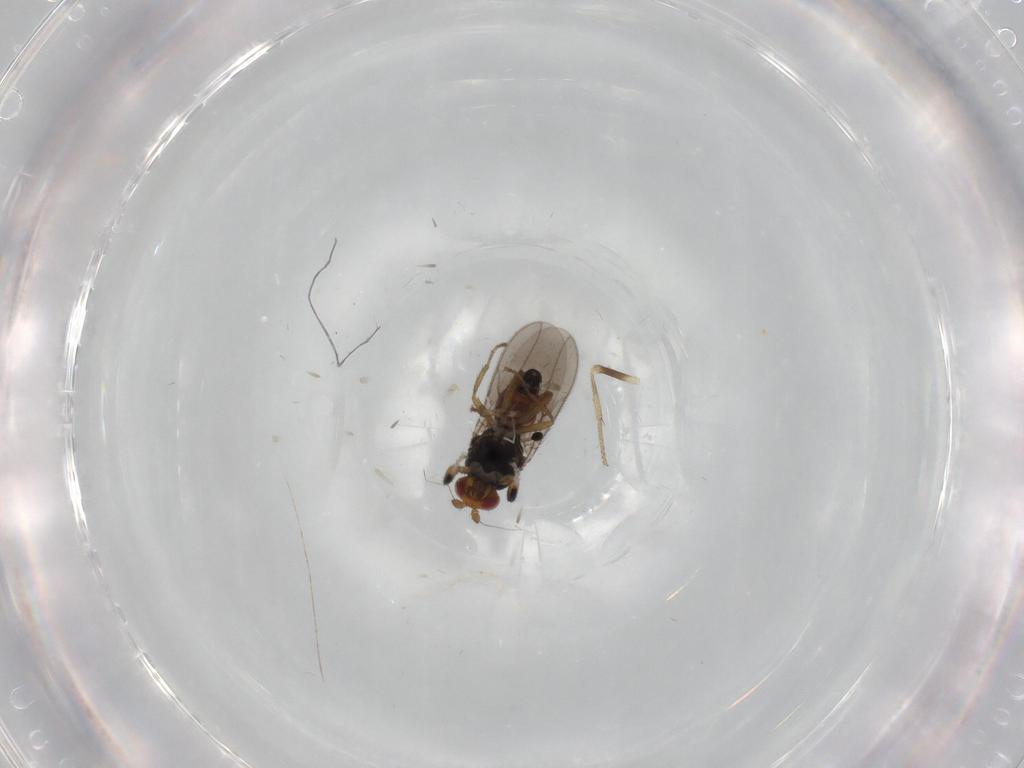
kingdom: Animalia
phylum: Arthropoda
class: Insecta
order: Diptera
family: Sphaeroceridae
